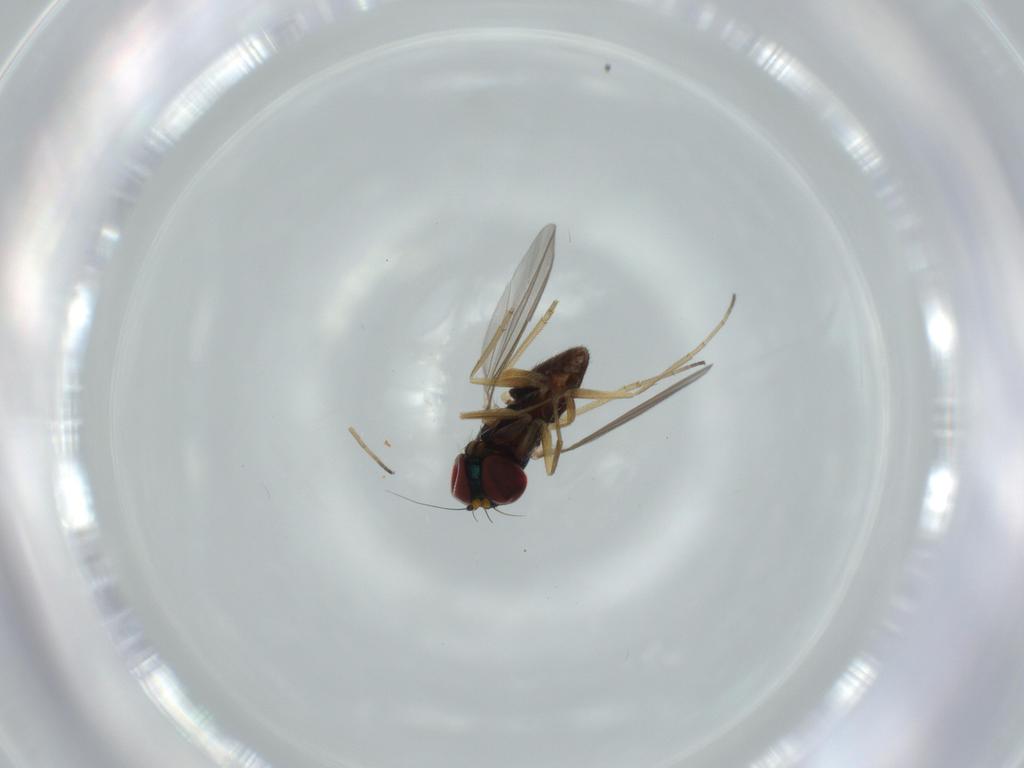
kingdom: Animalia
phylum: Arthropoda
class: Insecta
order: Diptera
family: Dolichopodidae
